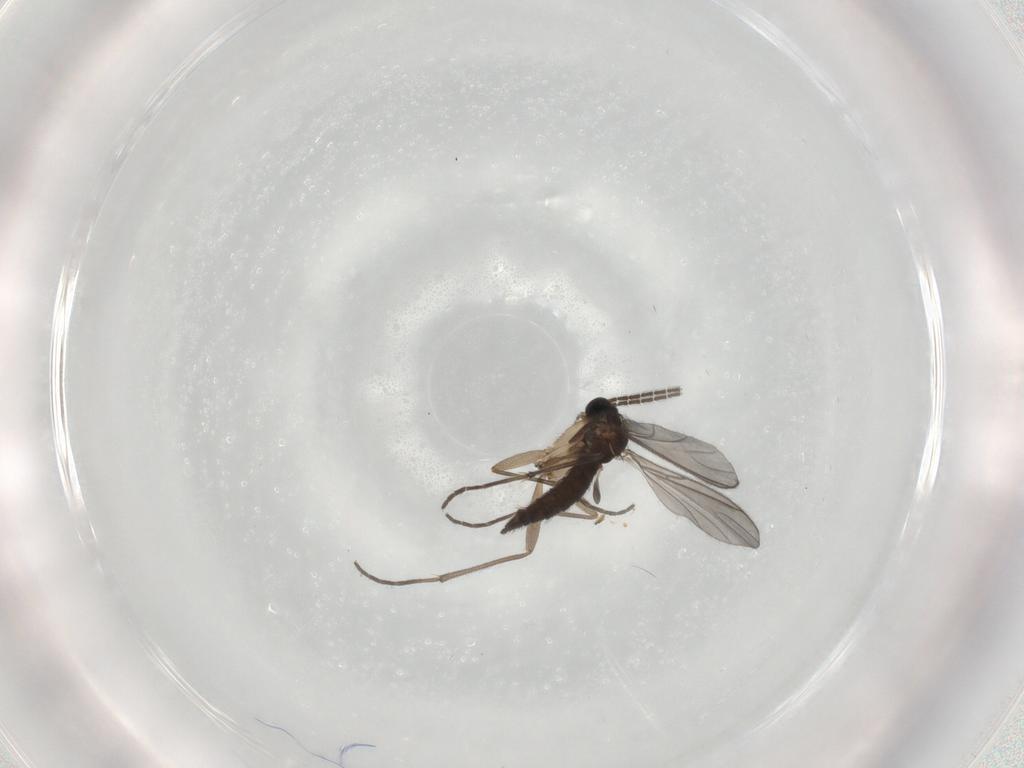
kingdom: Animalia
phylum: Arthropoda
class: Insecta
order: Diptera
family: Sciaridae
